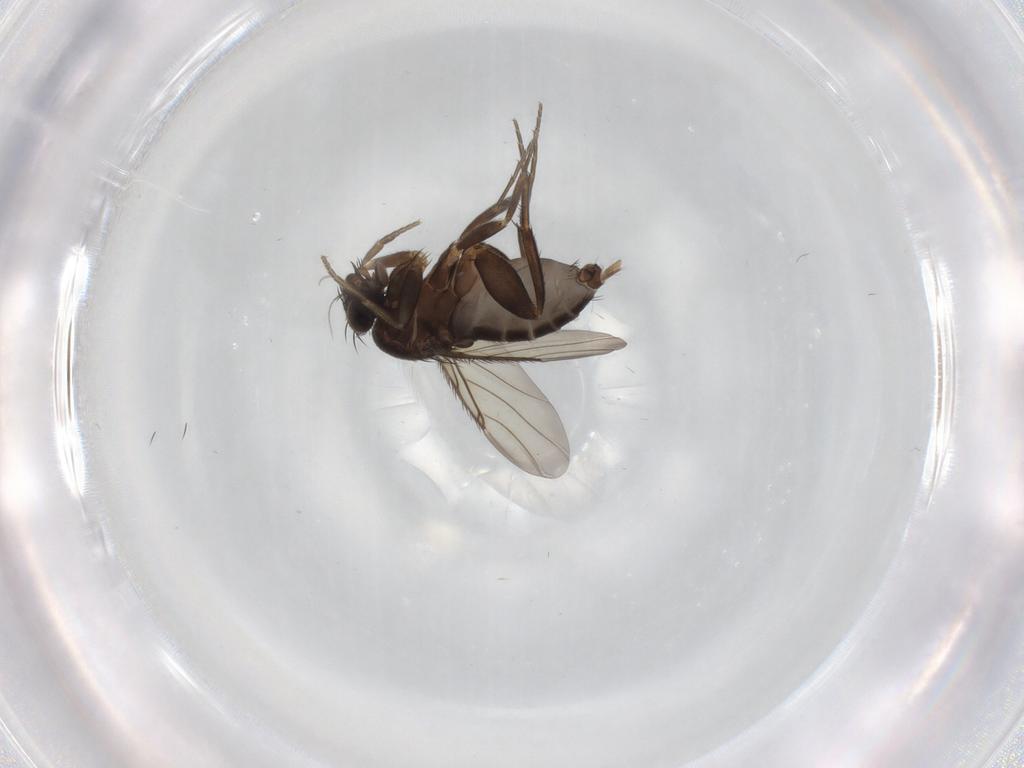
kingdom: Animalia
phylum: Arthropoda
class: Insecta
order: Diptera
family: Phoridae
